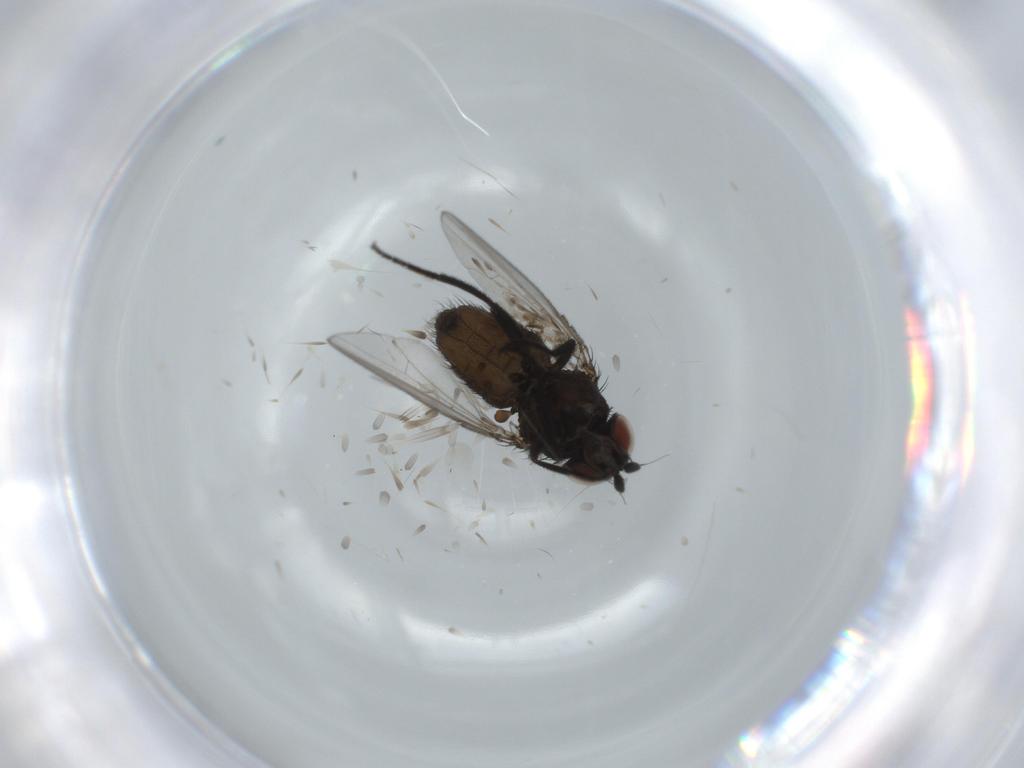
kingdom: Animalia
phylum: Arthropoda
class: Insecta
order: Diptera
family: Milichiidae
